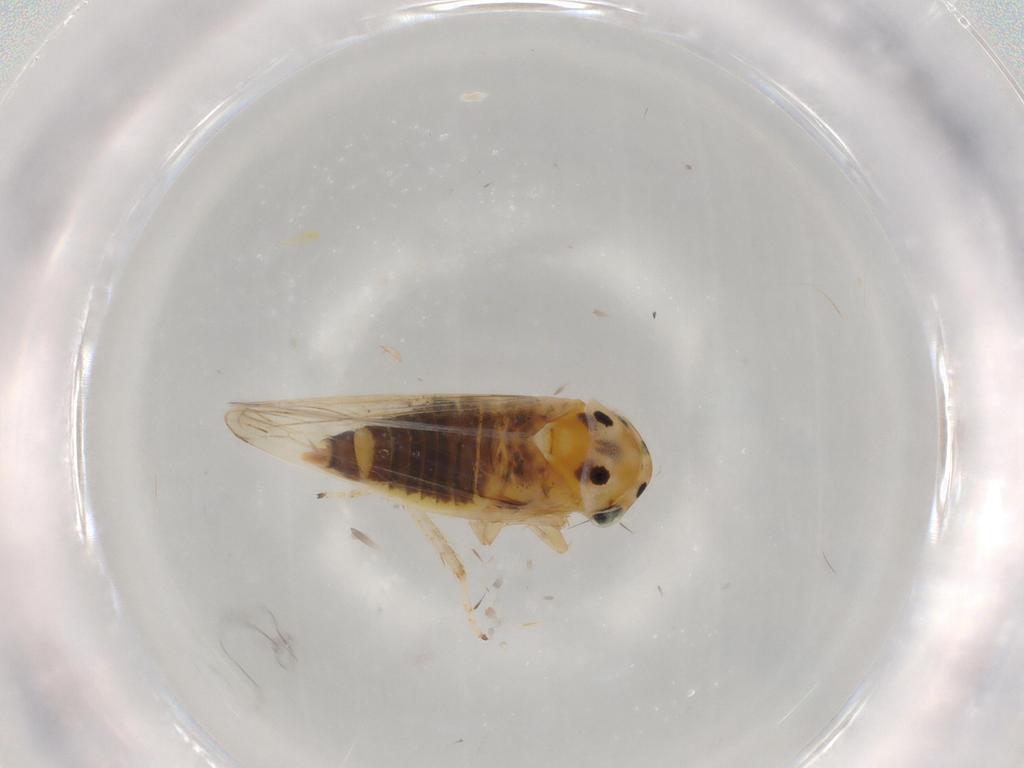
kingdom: Animalia
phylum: Arthropoda
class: Insecta
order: Hemiptera
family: Cicadellidae
